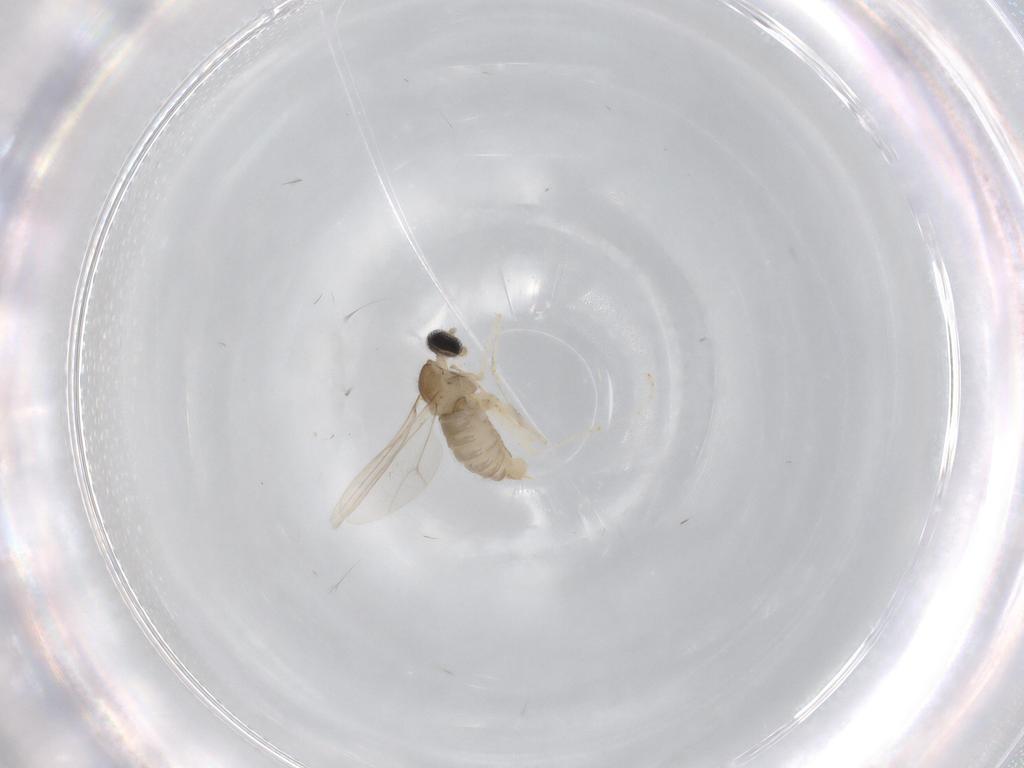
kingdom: Animalia
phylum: Arthropoda
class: Insecta
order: Diptera
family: Cecidomyiidae
